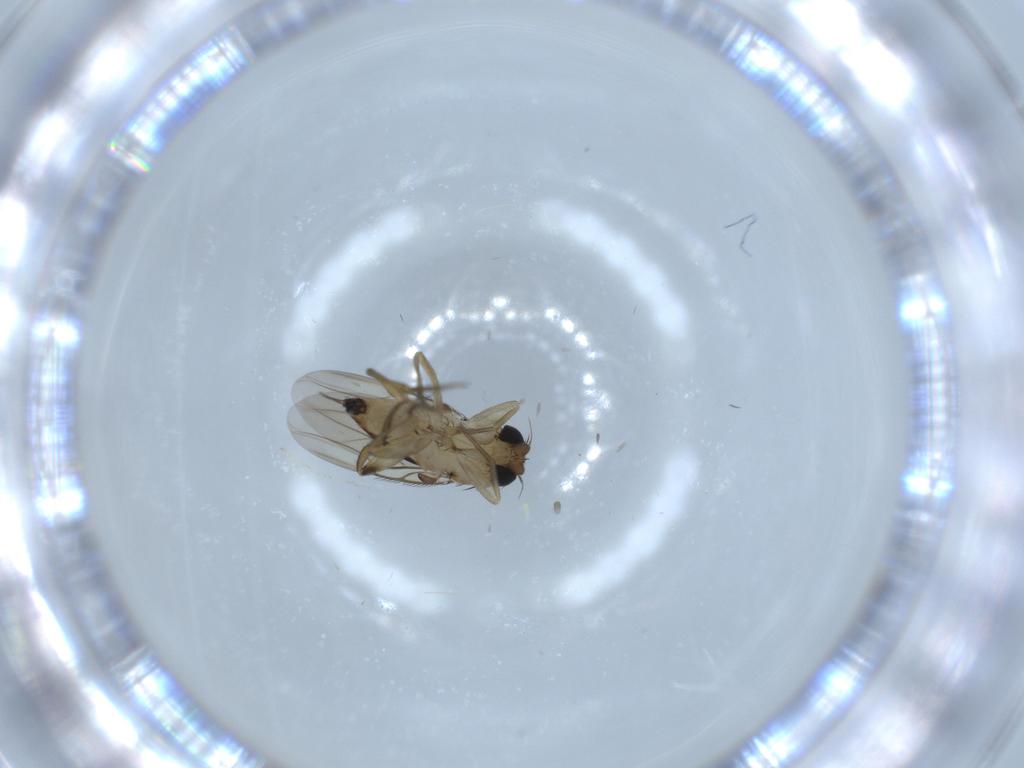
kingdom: Animalia
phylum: Arthropoda
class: Insecta
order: Diptera
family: Phoridae
